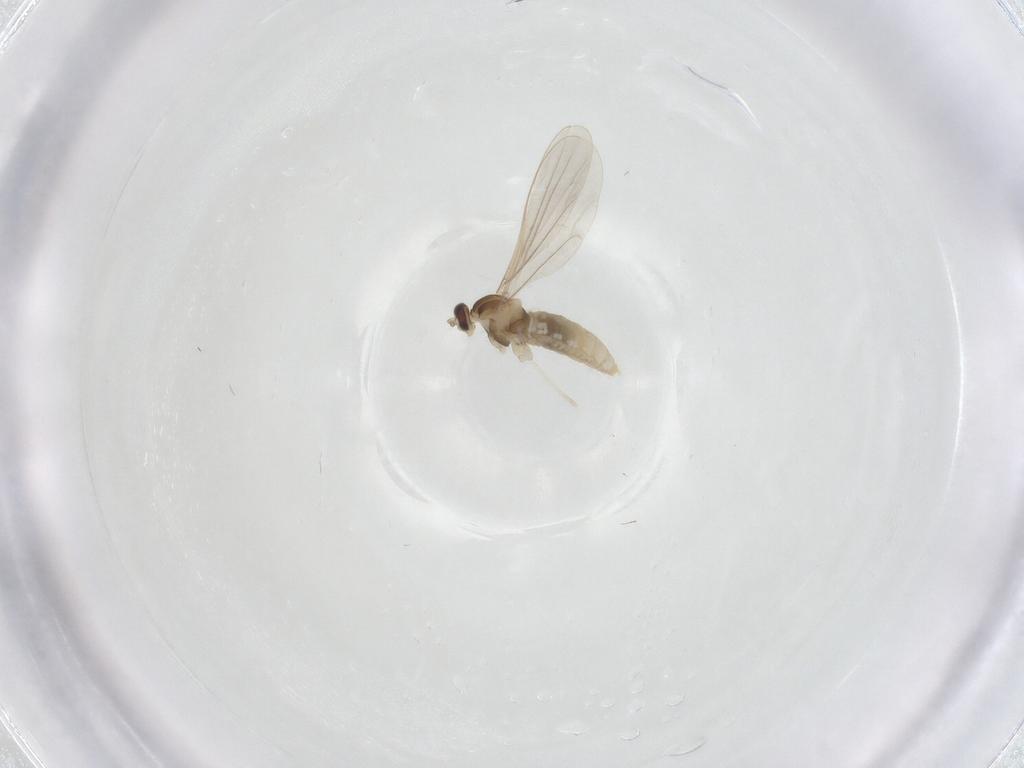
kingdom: Animalia
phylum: Arthropoda
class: Insecta
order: Diptera
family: Cecidomyiidae
